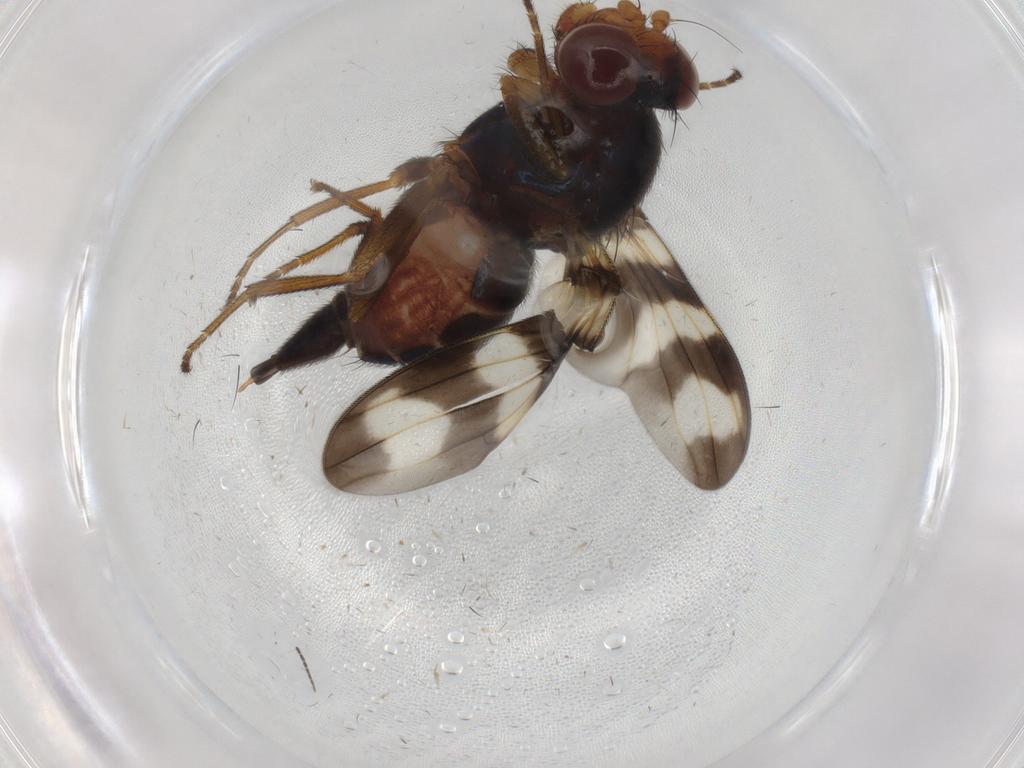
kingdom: Animalia
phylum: Arthropoda
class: Insecta
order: Diptera
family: Ulidiidae
